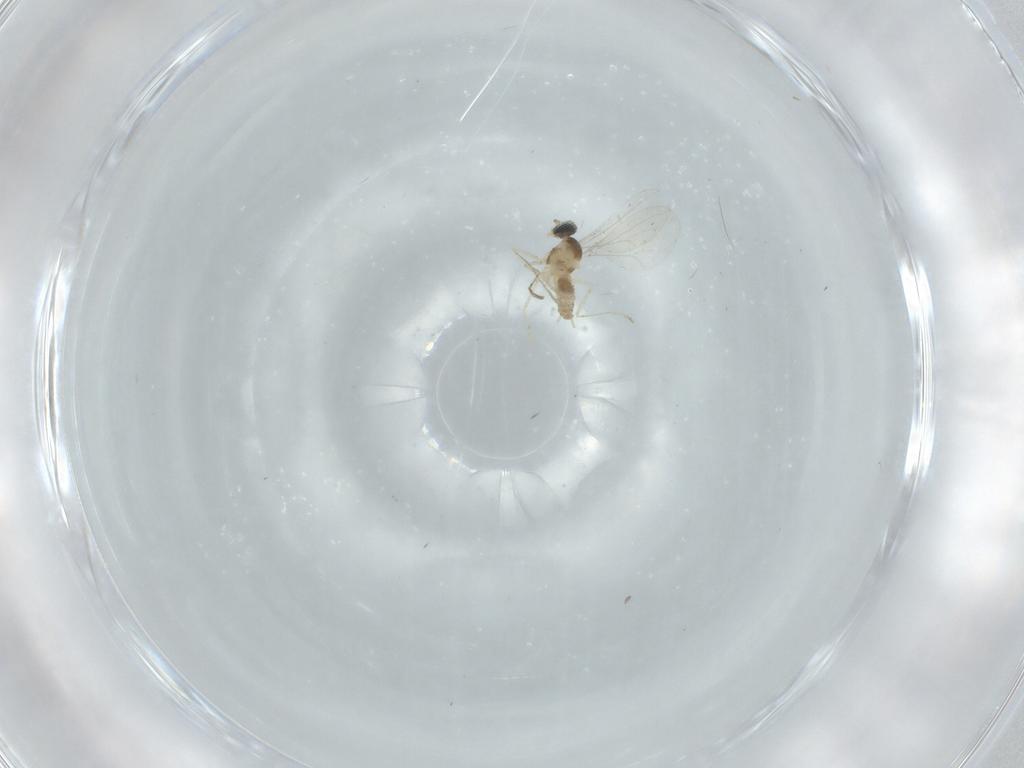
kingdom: Animalia
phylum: Arthropoda
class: Insecta
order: Diptera
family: Cecidomyiidae
